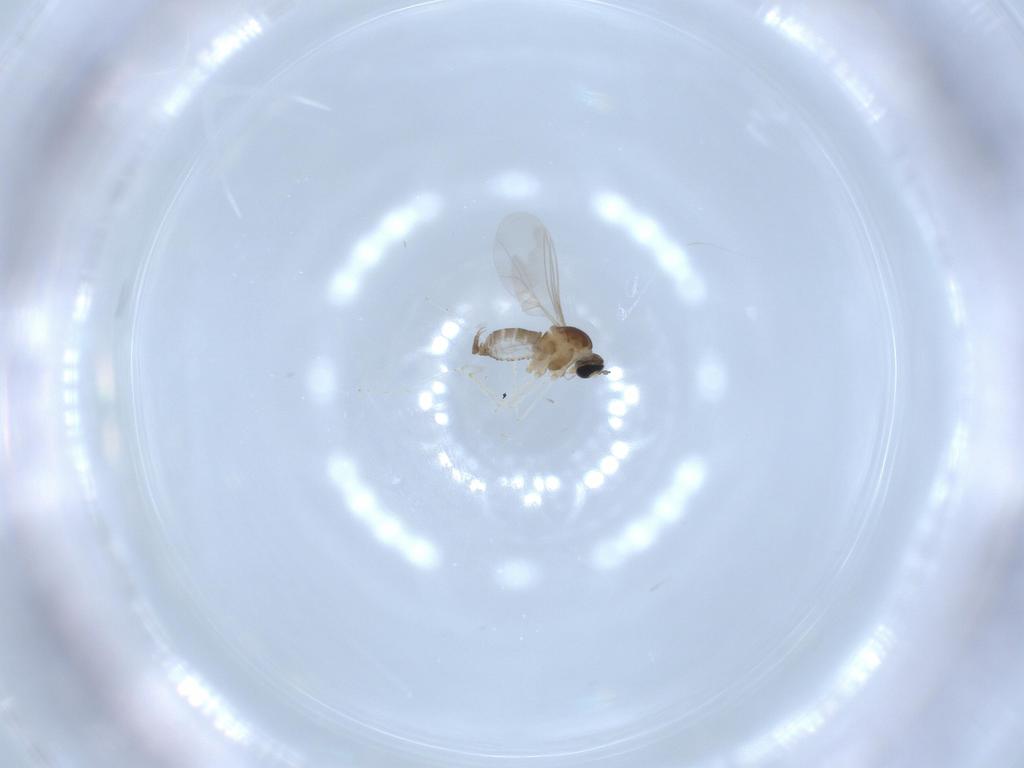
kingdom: Animalia
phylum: Arthropoda
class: Insecta
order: Diptera
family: Cecidomyiidae
